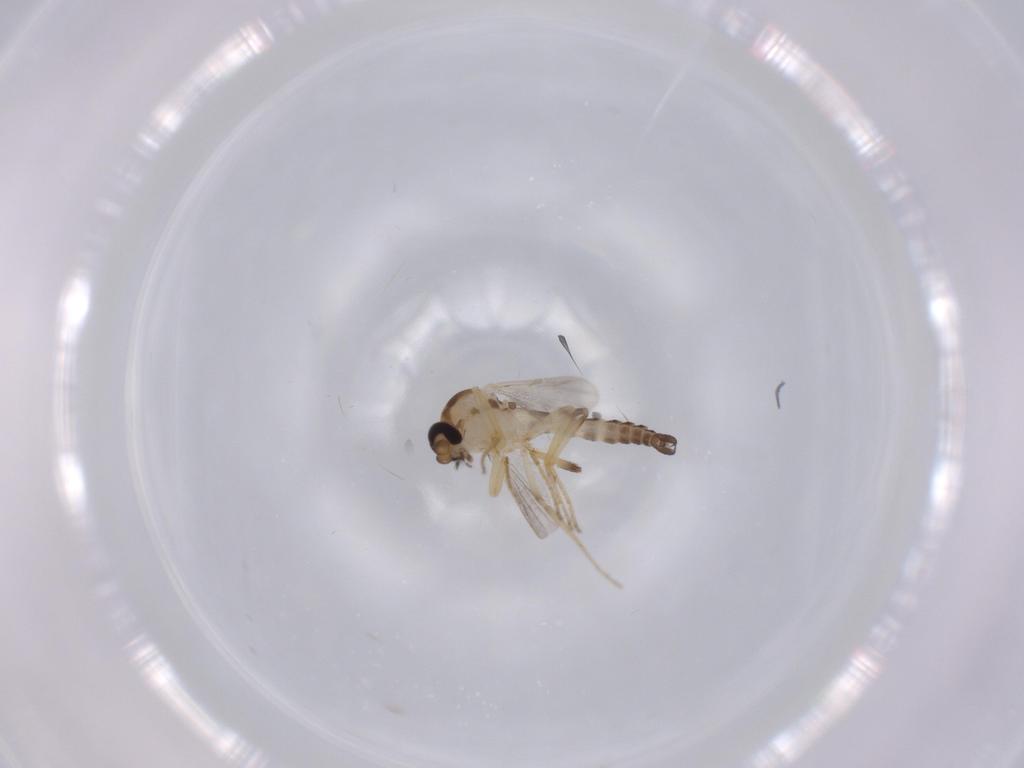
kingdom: Animalia
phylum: Arthropoda
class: Insecta
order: Diptera
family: Ceratopogonidae
